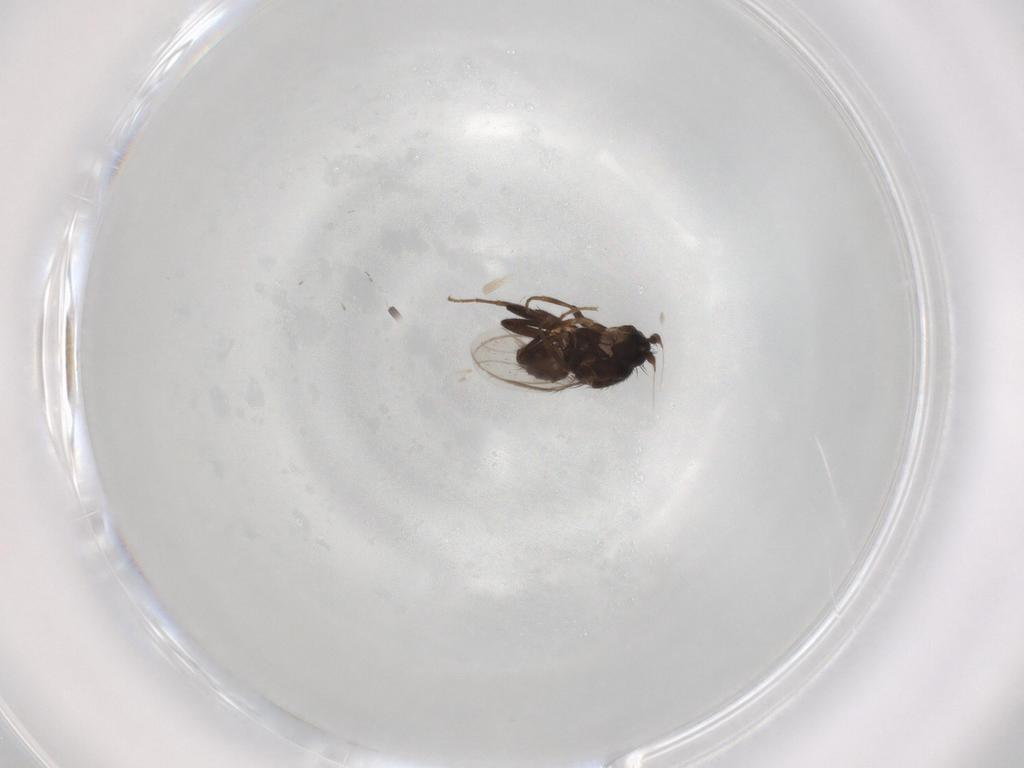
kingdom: Animalia
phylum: Arthropoda
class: Insecta
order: Diptera
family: Sphaeroceridae
